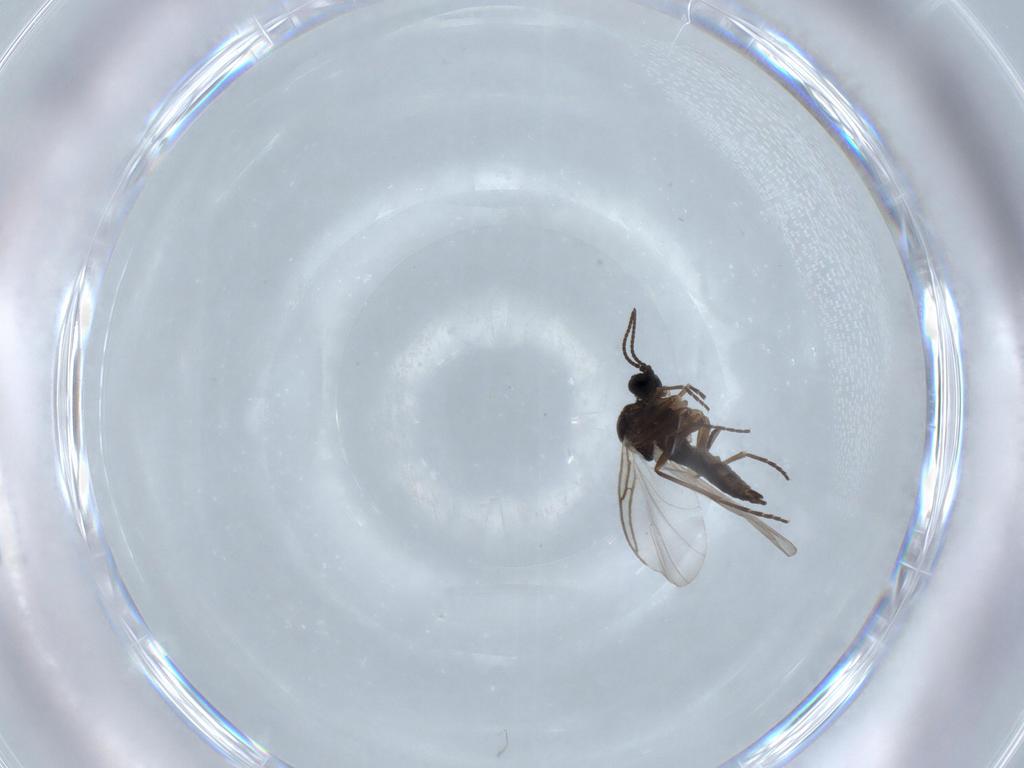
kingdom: Animalia
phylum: Arthropoda
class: Insecta
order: Diptera
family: Sciaridae
